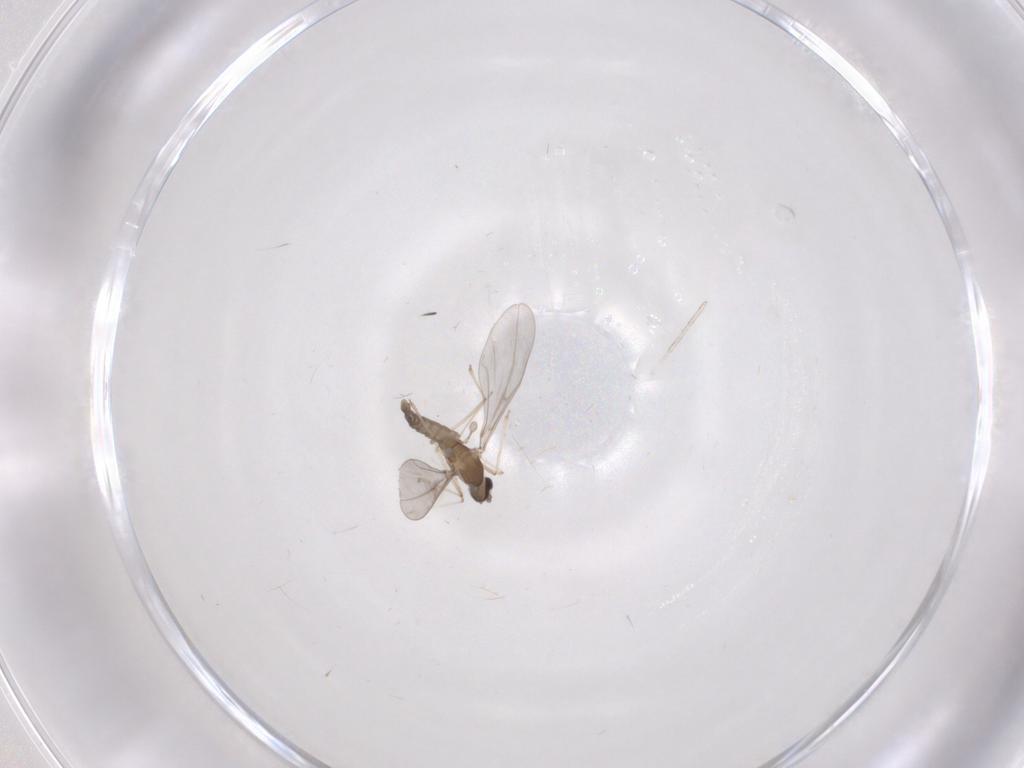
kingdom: Animalia
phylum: Arthropoda
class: Insecta
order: Diptera
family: Cecidomyiidae
